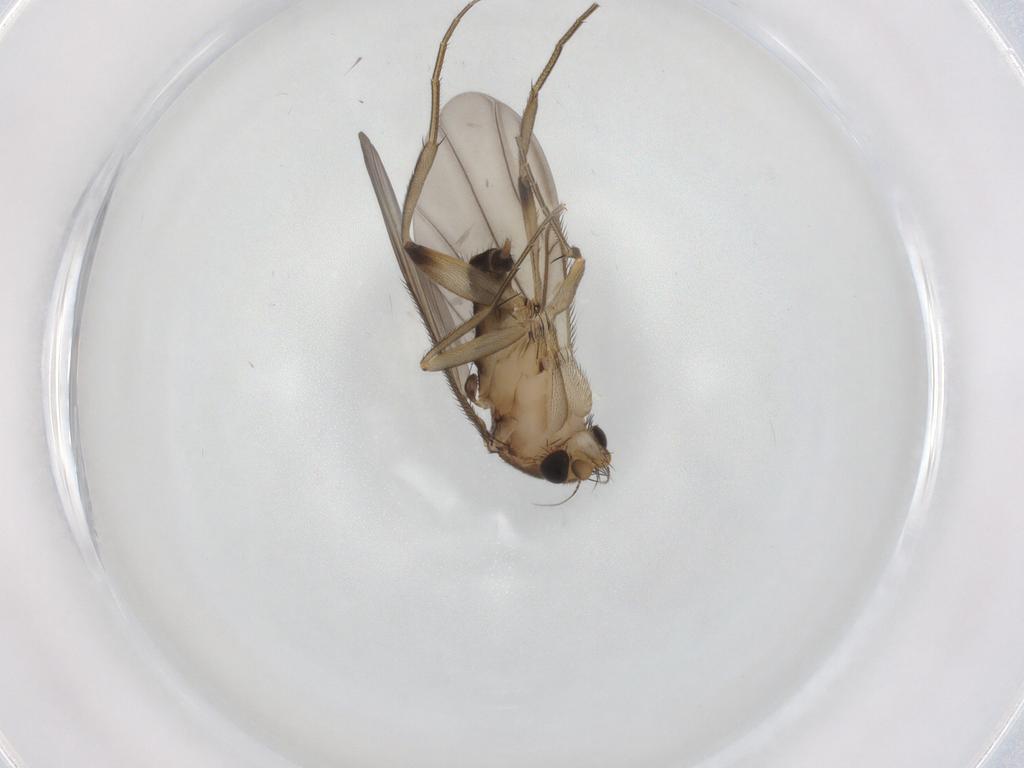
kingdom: Animalia
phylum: Arthropoda
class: Insecta
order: Diptera
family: Phoridae
